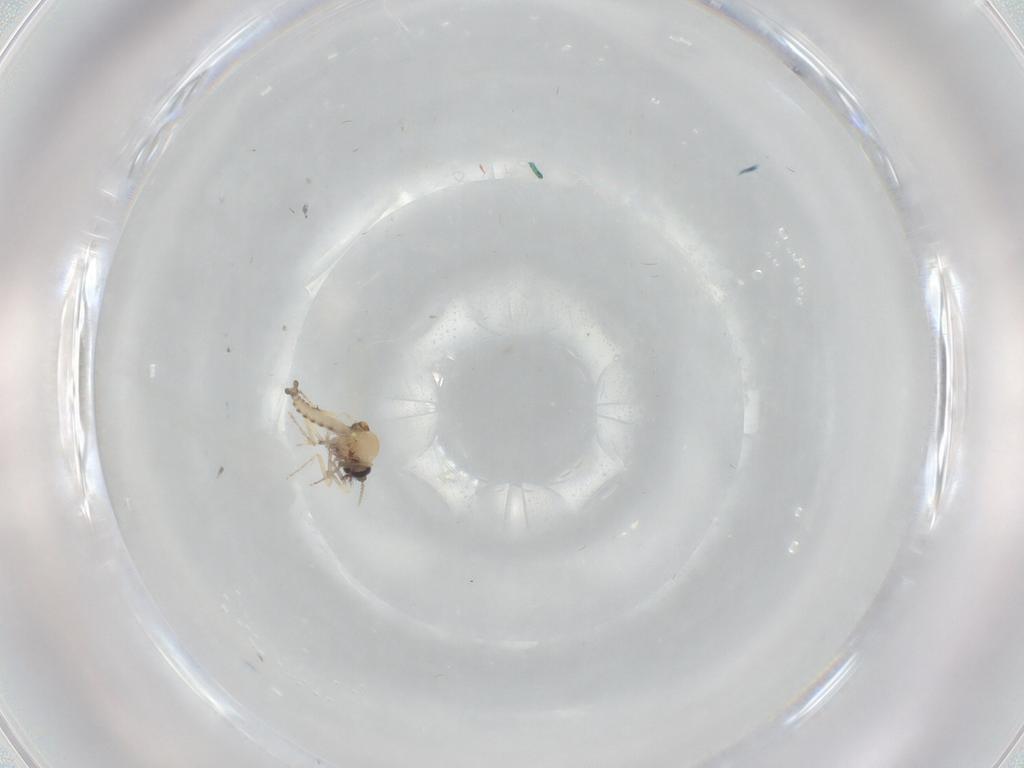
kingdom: Animalia
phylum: Arthropoda
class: Insecta
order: Diptera
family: Ceratopogonidae
